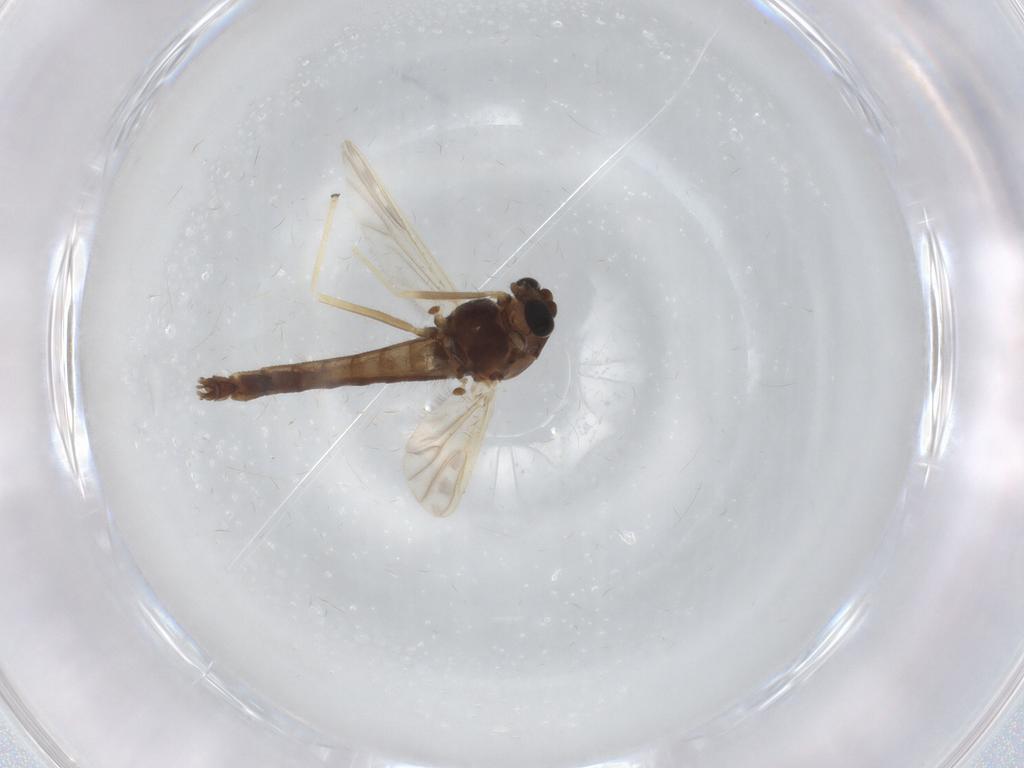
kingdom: Animalia
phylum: Arthropoda
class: Insecta
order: Diptera
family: Chironomidae
